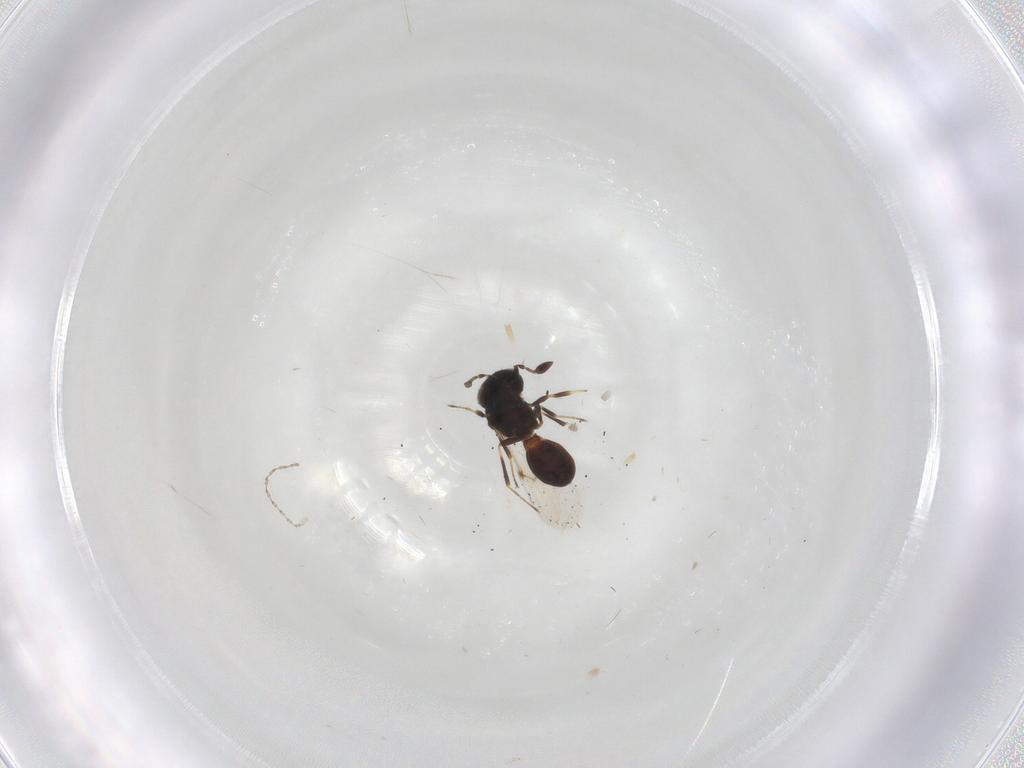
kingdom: Animalia
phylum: Arthropoda
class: Insecta
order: Hymenoptera
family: Scelionidae
